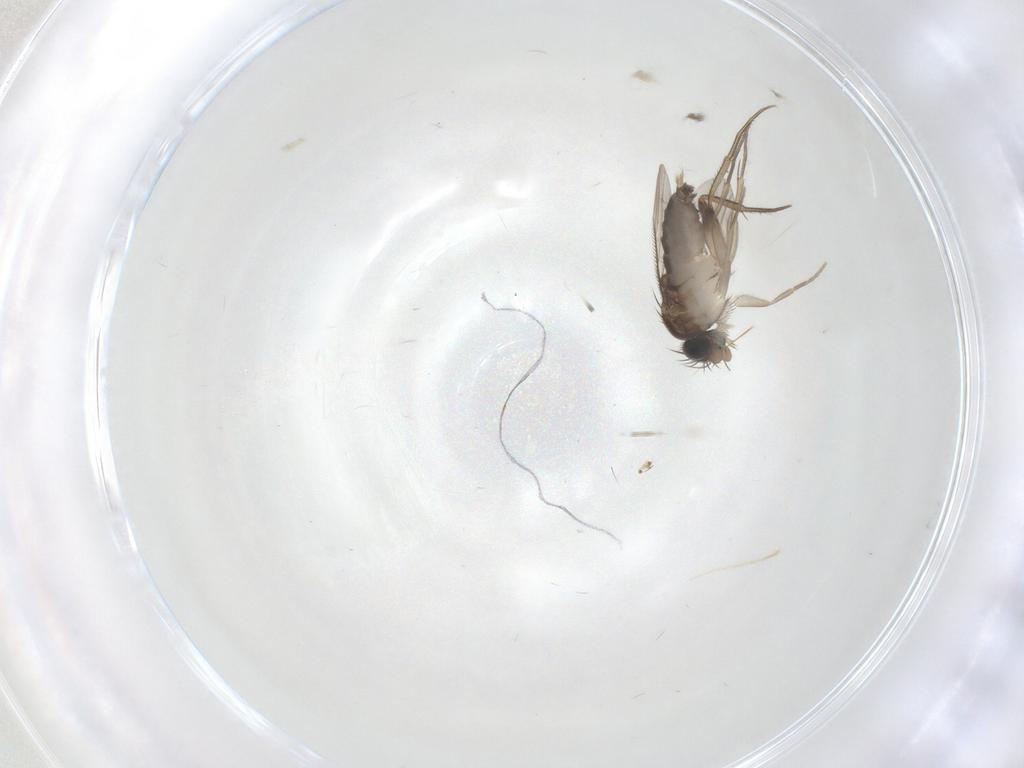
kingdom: Animalia
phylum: Arthropoda
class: Insecta
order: Diptera
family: Phoridae
